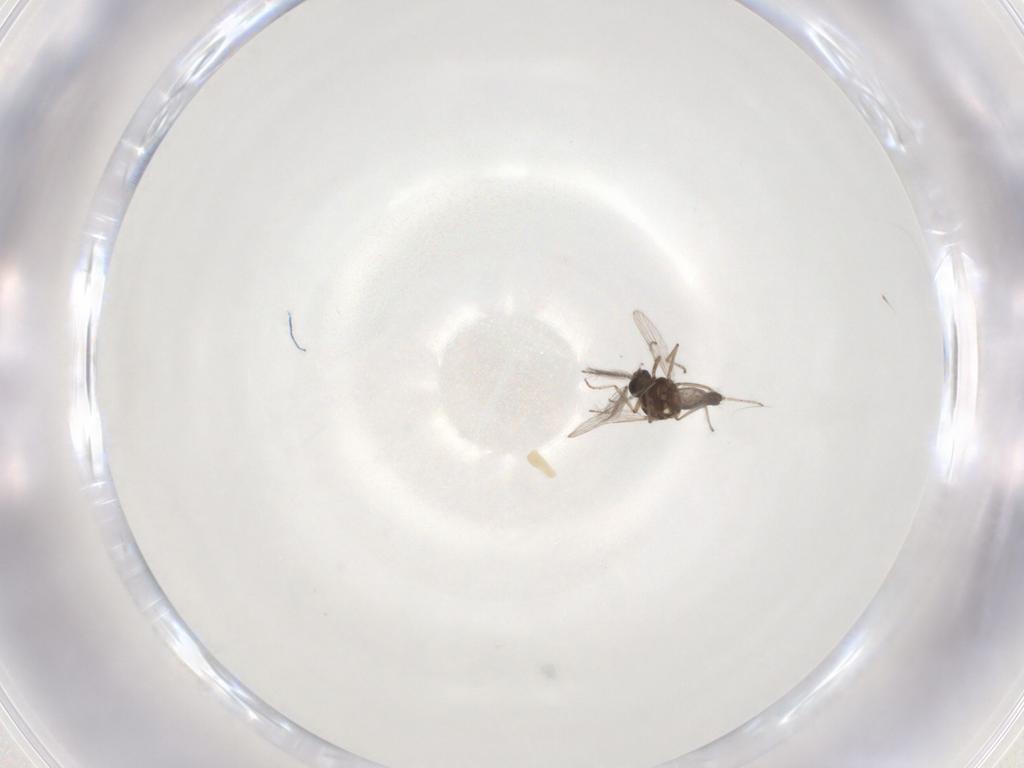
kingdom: Animalia
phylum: Arthropoda
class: Insecta
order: Diptera
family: Ceratopogonidae
